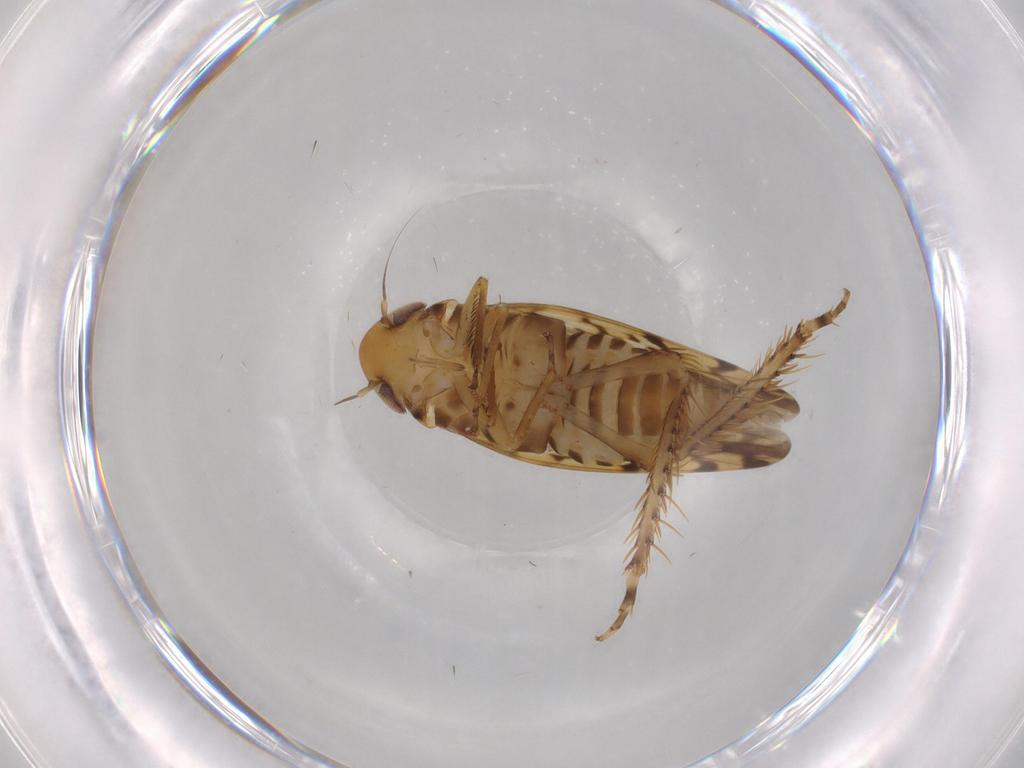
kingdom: Animalia
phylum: Arthropoda
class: Insecta
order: Hemiptera
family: Cicadellidae
